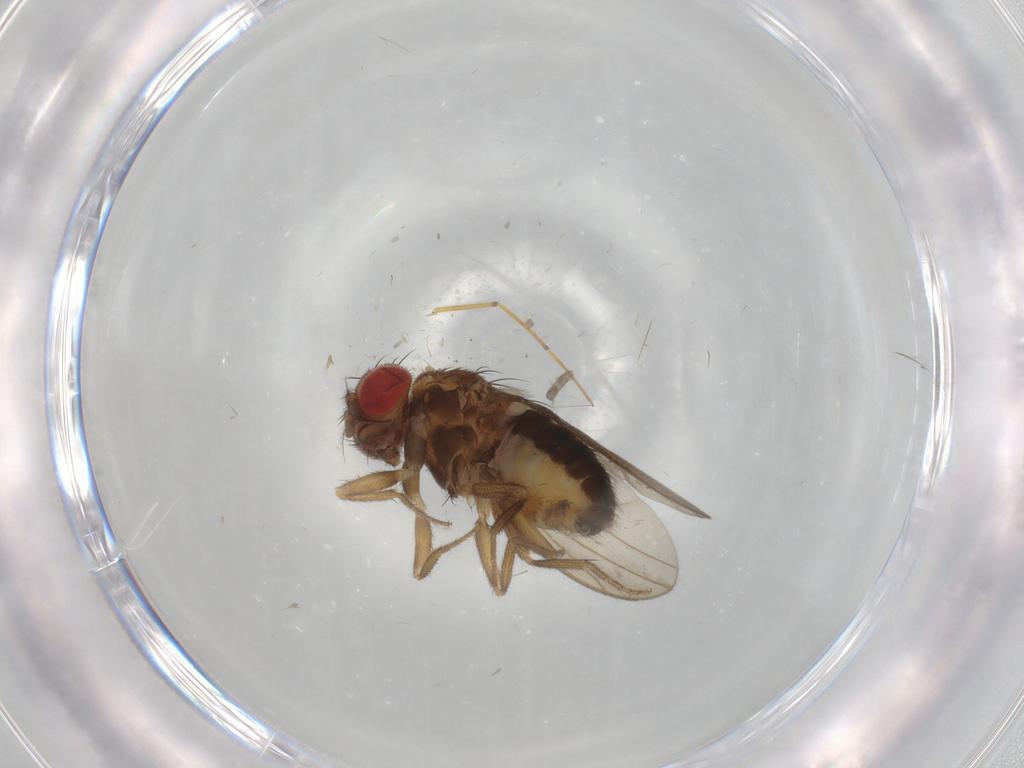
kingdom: Animalia
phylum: Arthropoda
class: Insecta
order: Diptera
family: Drosophilidae
